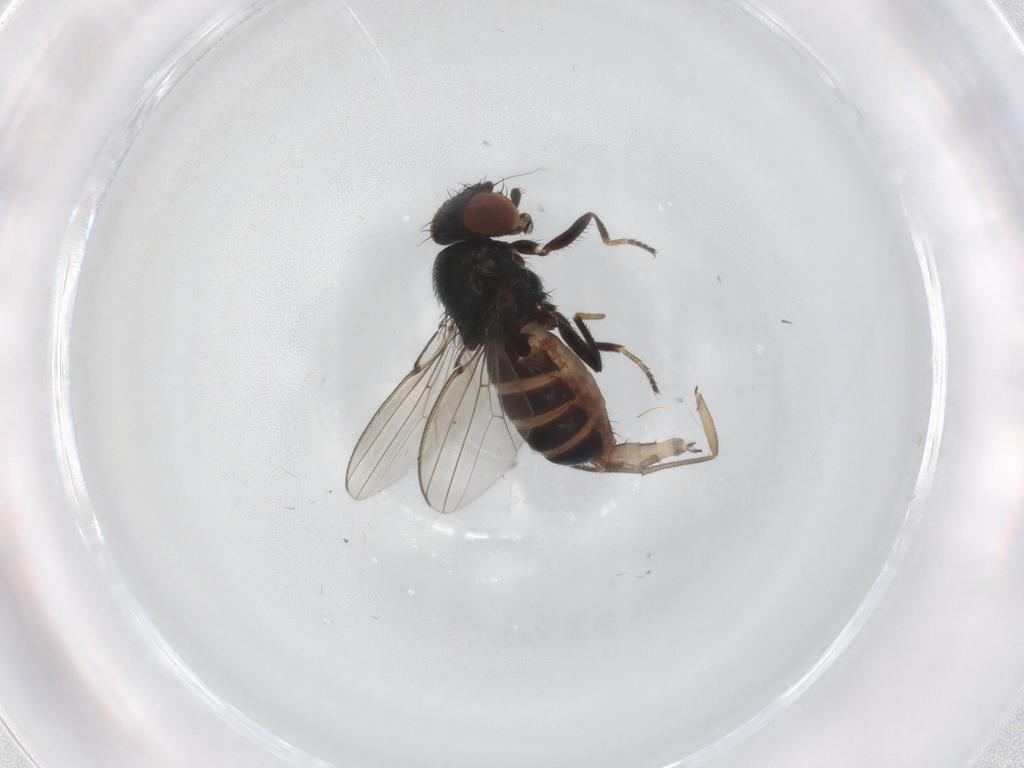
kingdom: Animalia
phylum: Arthropoda
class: Insecta
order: Diptera
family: Milichiidae
